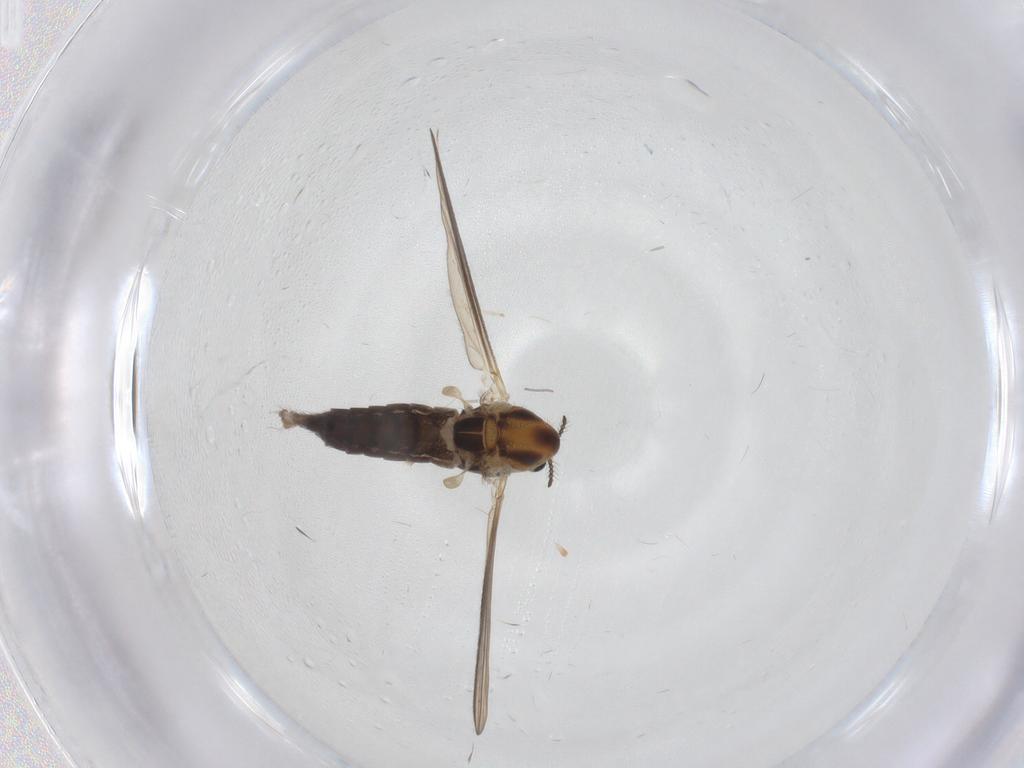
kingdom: Animalia
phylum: Arthropoda
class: Insecta
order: Diptera
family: Chironomidae
